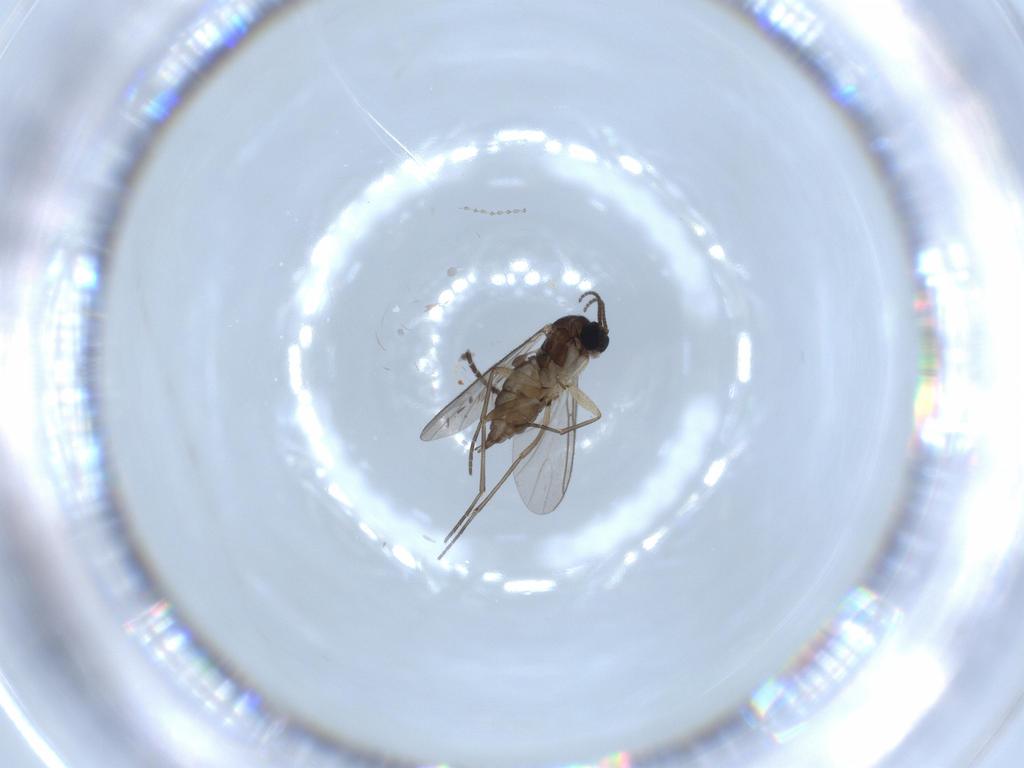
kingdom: Animalia
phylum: Arthropoda
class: Insecta
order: Diptera
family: Sciaridae
